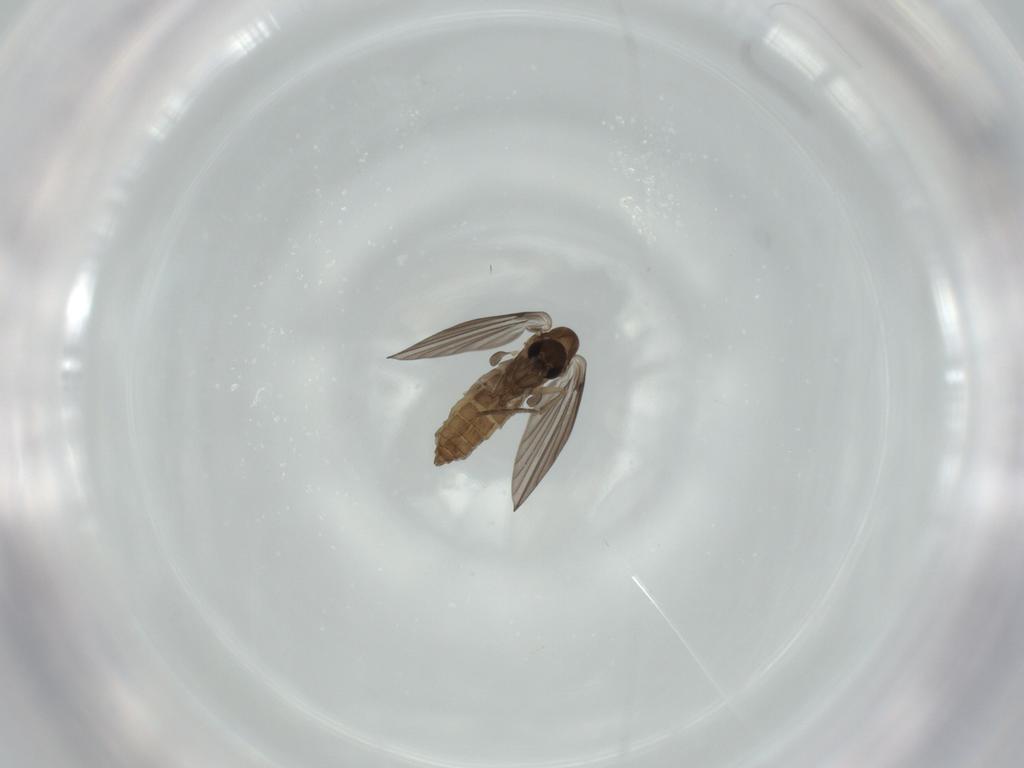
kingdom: Animalia
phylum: Arthropoda
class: Insecta
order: Diptera
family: Psychodidae
